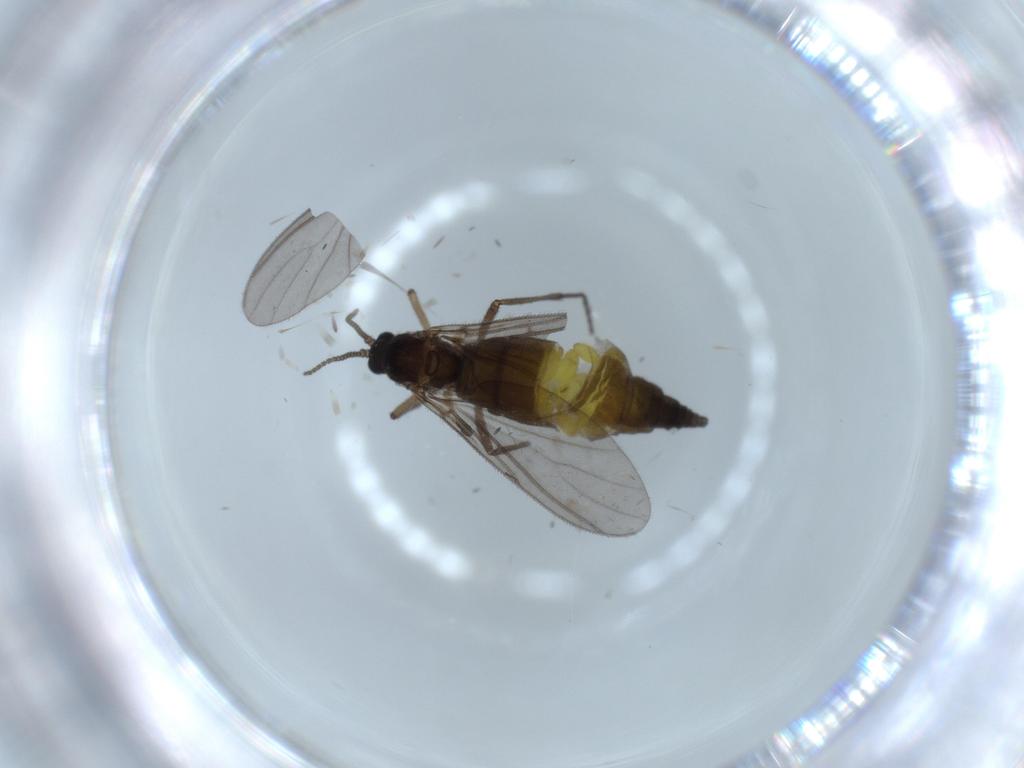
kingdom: Animalia
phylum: Arthropoda
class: Insecta
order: Diptera
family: Sciaridae
